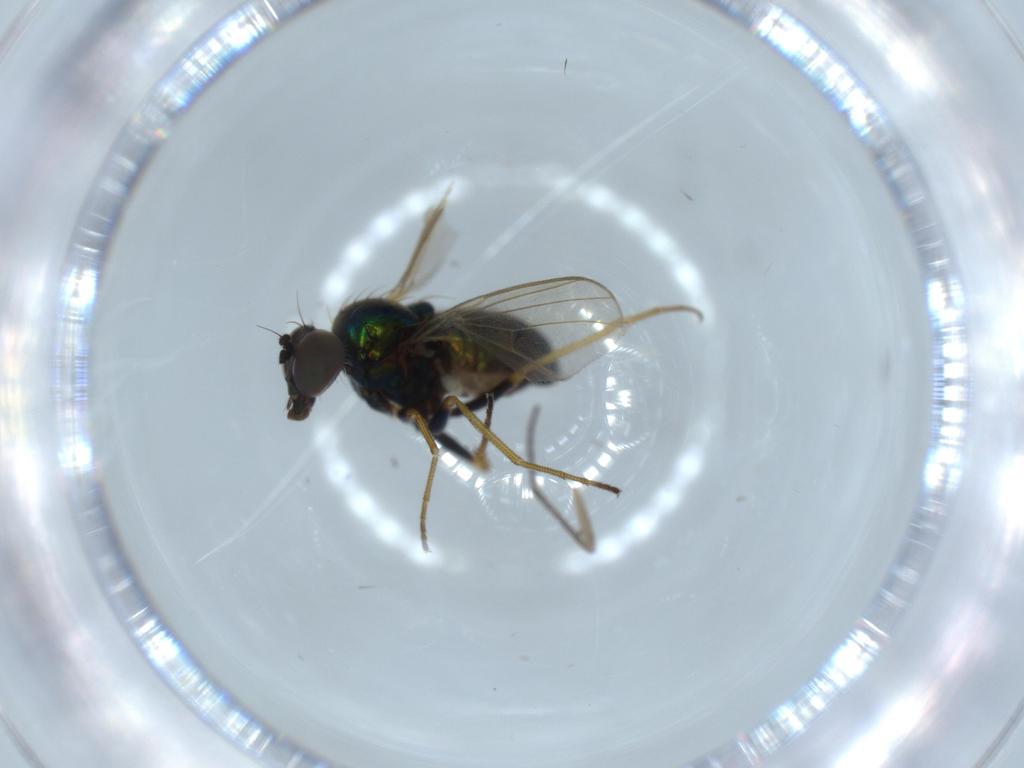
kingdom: Animalia
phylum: Arthropoda
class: Insecta
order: Diptera
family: Dolichopodidae
